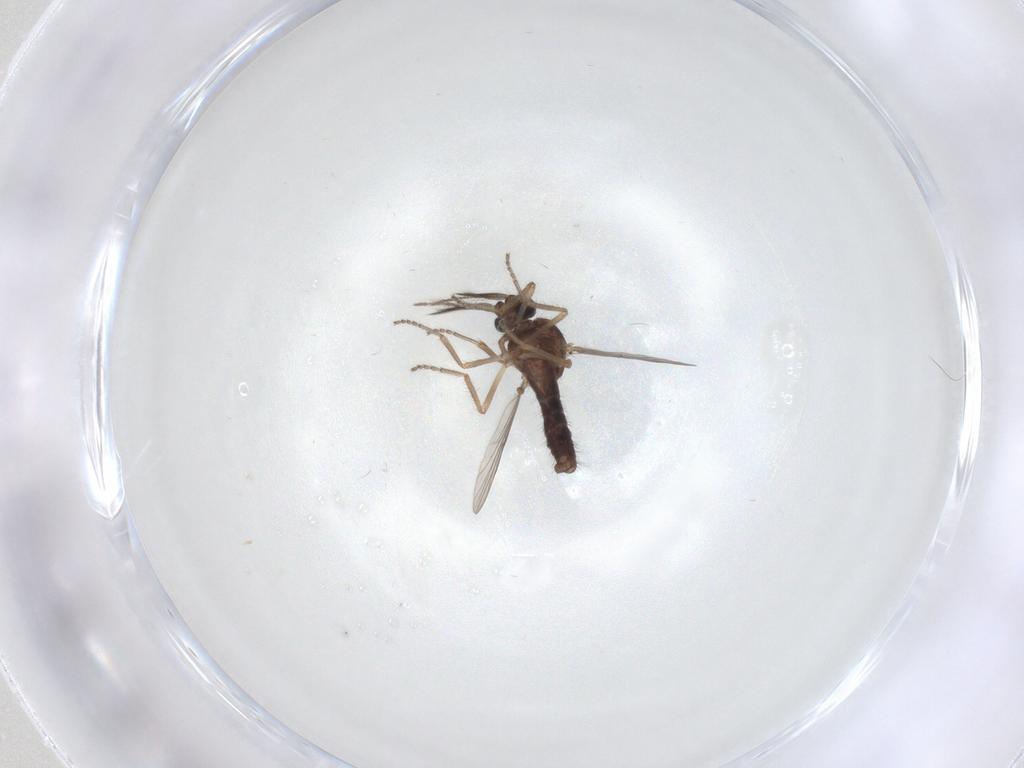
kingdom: Animalia
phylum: Arthropoda
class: Insecta
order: Diptera
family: Ceratopogonidae
